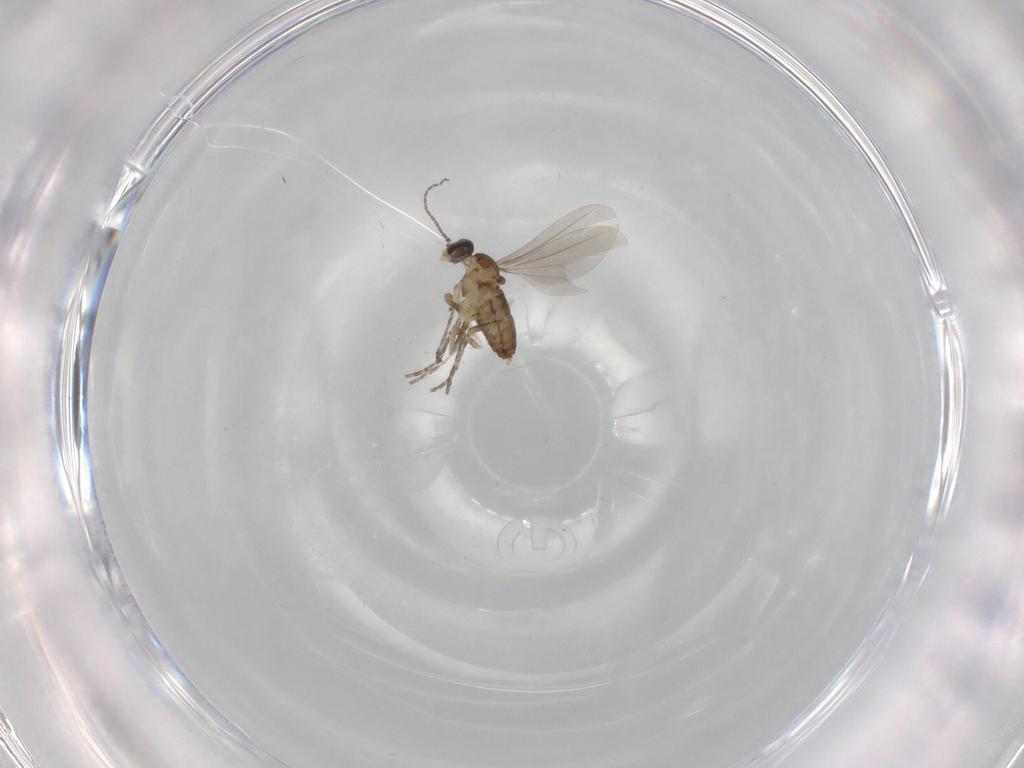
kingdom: Animalia
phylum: Arthropoda
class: Insecta
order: Diptera
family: Cecidomyiidae
